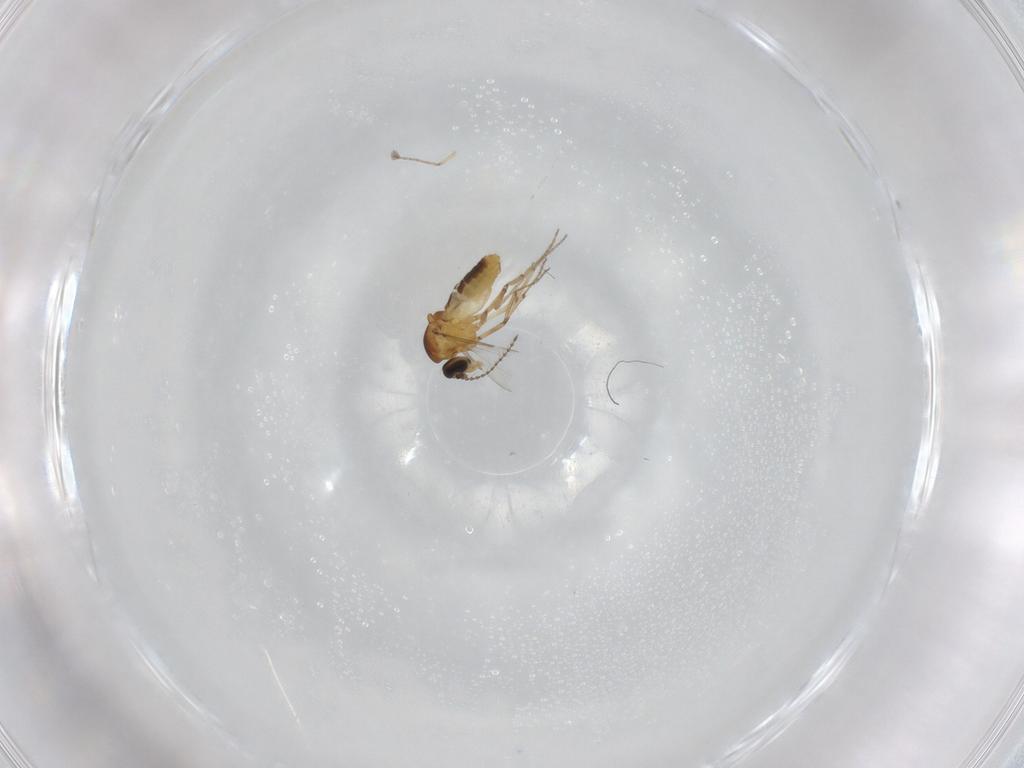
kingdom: Animalia
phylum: Arthropoda
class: Insecta
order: Diptera
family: Ceratopogonidae
